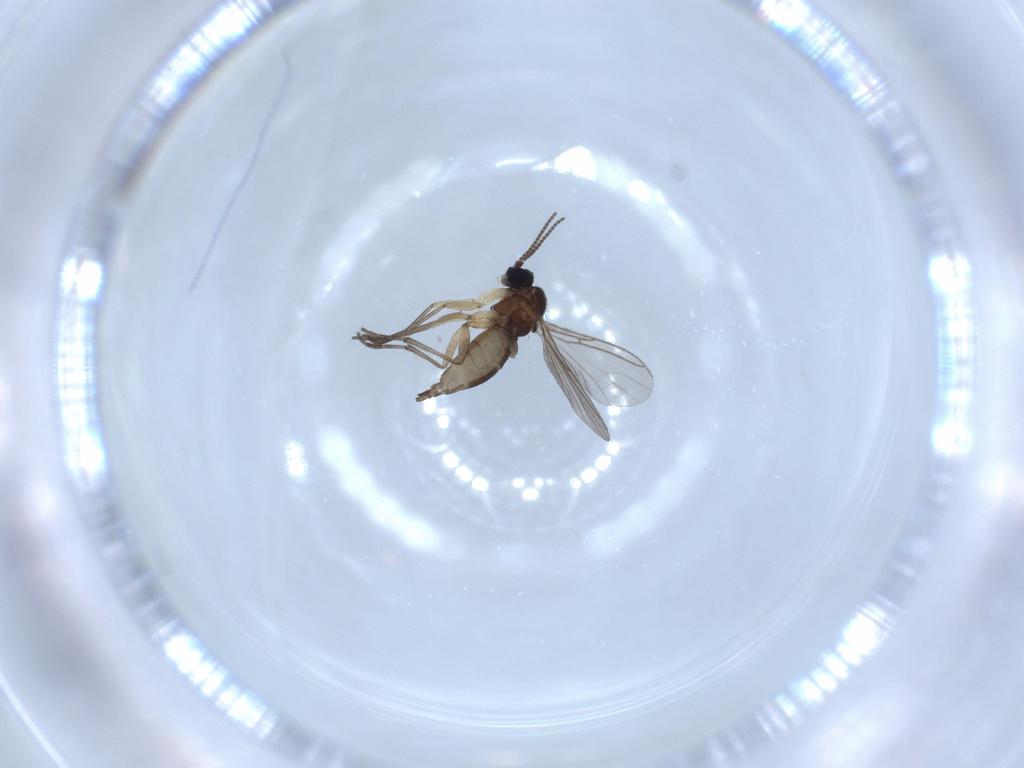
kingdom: Animalia
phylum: Arthropoda
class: Insecta
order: Diptera
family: Sciaridae
